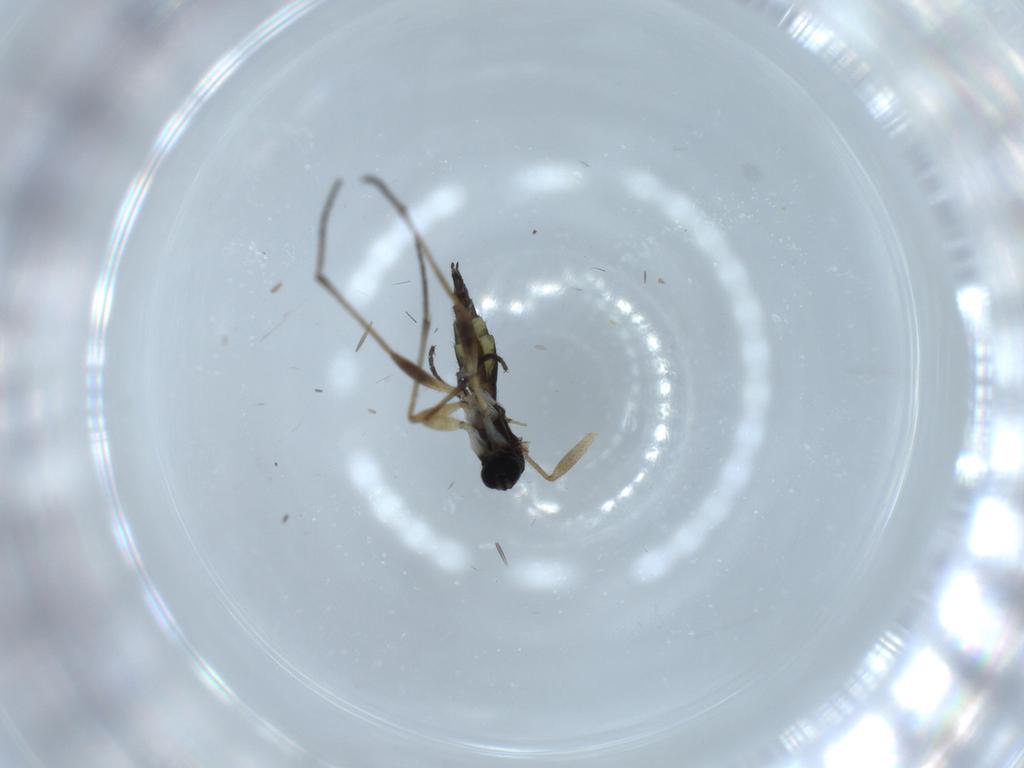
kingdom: Animalia
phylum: Arthropoda
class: Insecta
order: Diptera
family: Sciaridae
